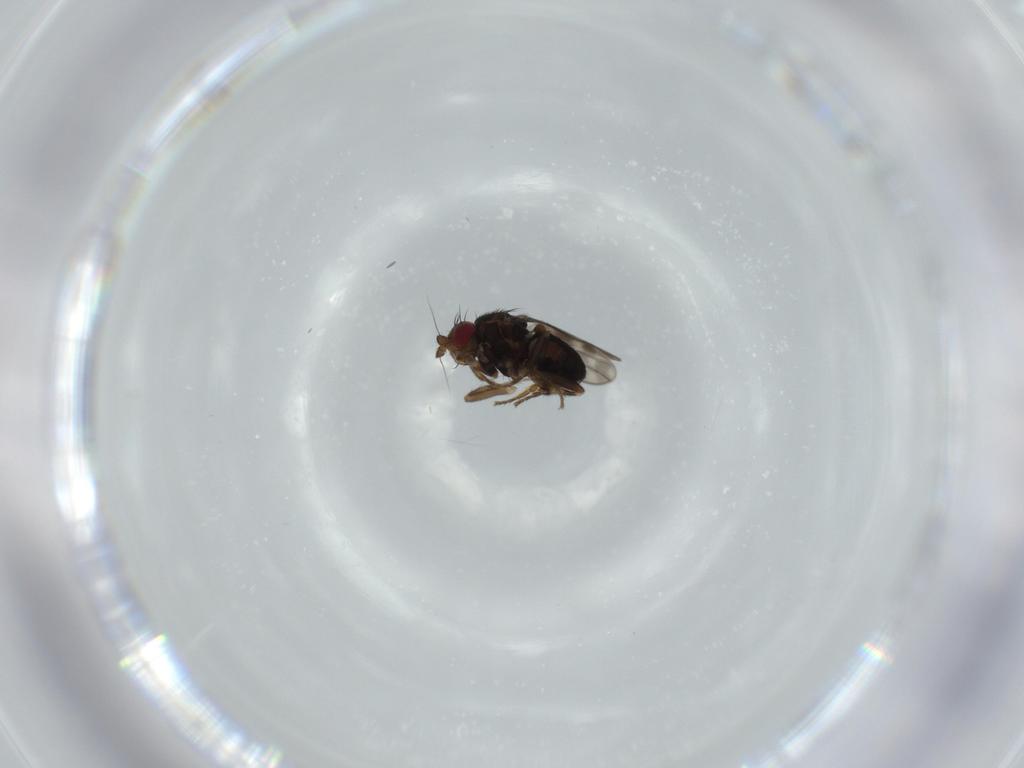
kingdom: Animalia
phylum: Arthropoda
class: Insecta
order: Diptera
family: Sphaeroceridae
